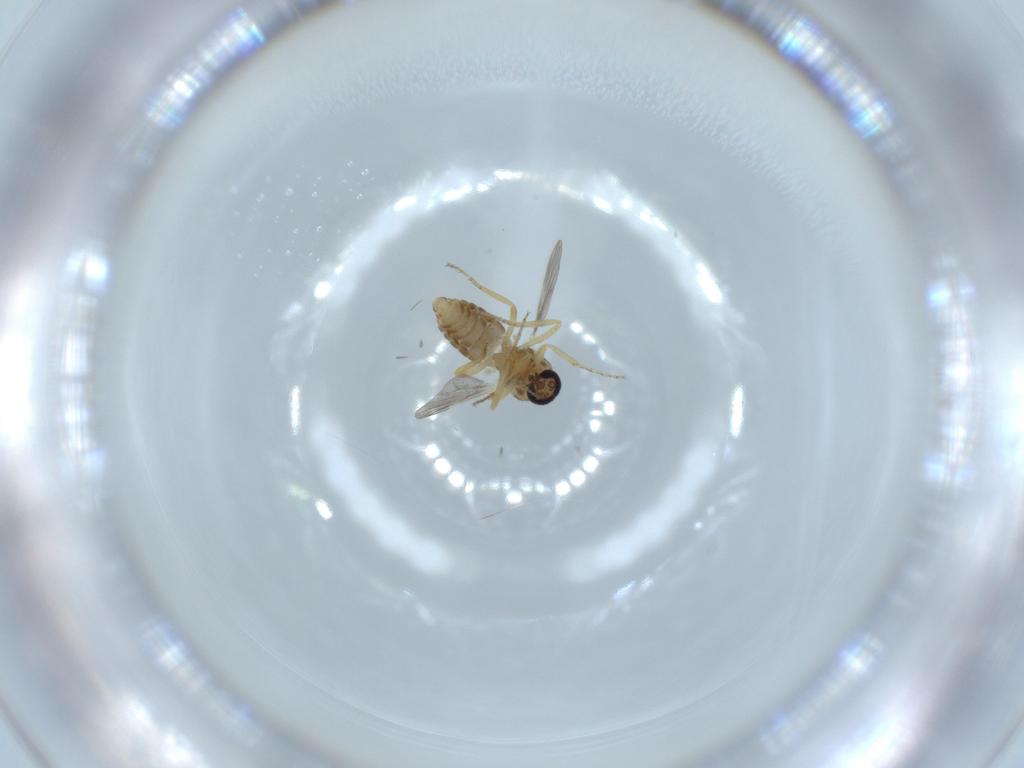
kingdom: Animalia
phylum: Arthropoda
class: Insecta
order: Diptera
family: Ceratopogonidae
